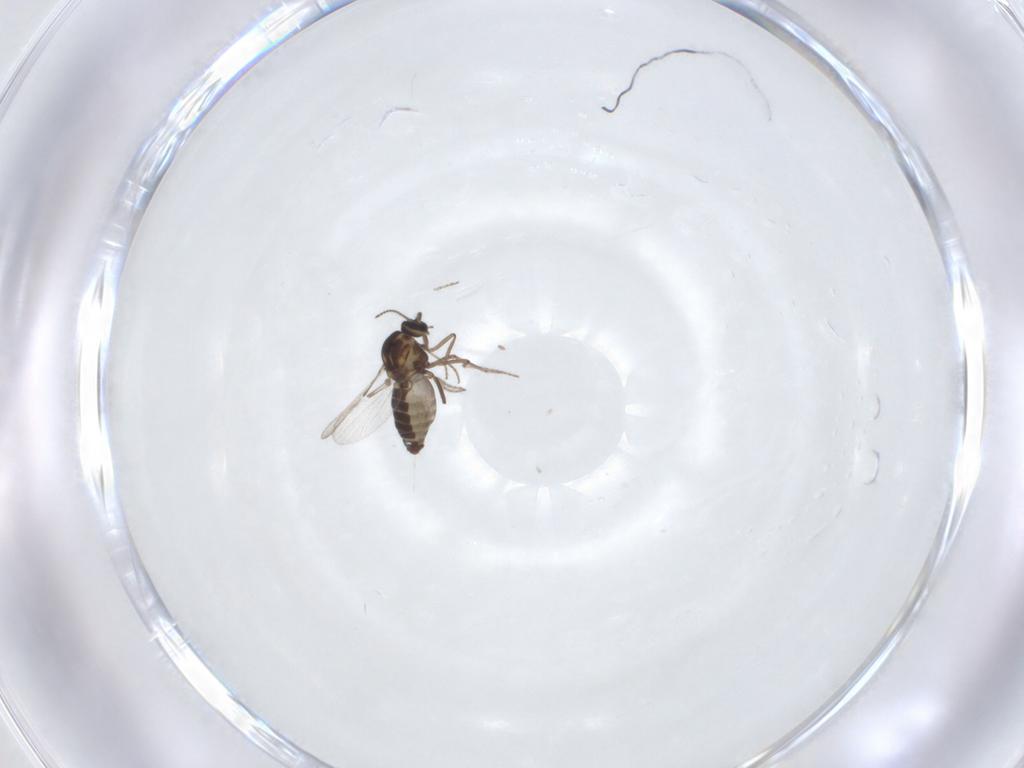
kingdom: Animalia
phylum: Arthropoda
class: Insecta
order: Diptera
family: Ceratopogonidae
